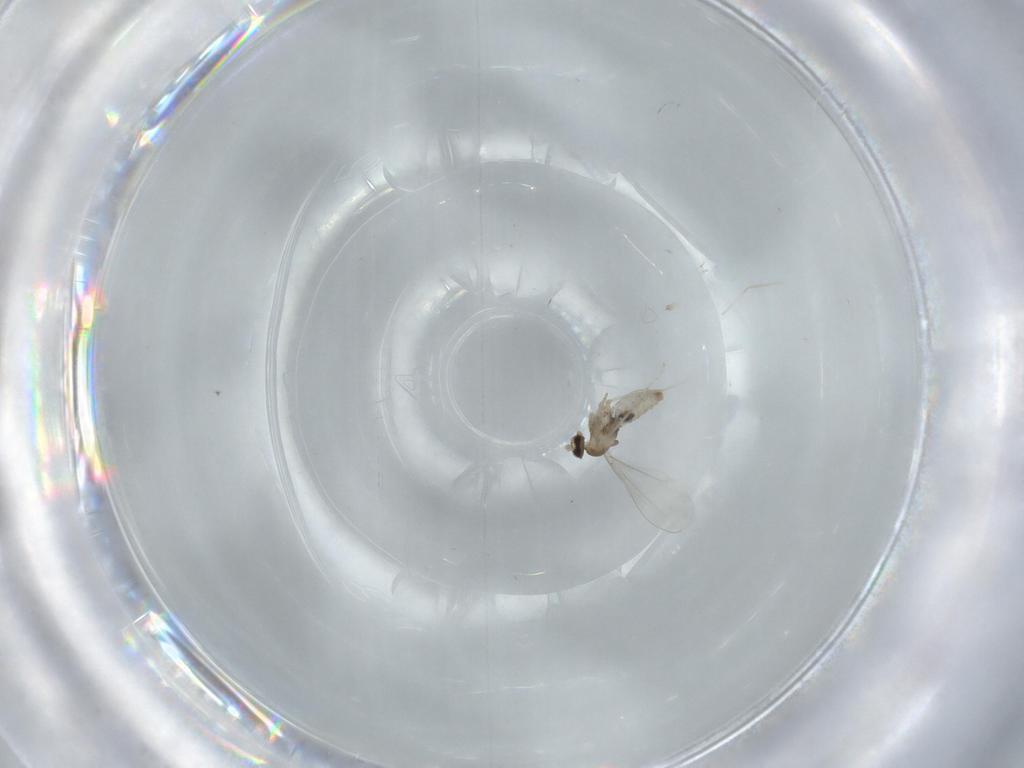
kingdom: Animalia
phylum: Arthropoda
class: Insecta
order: Diptera
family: Cecidomyiidae
